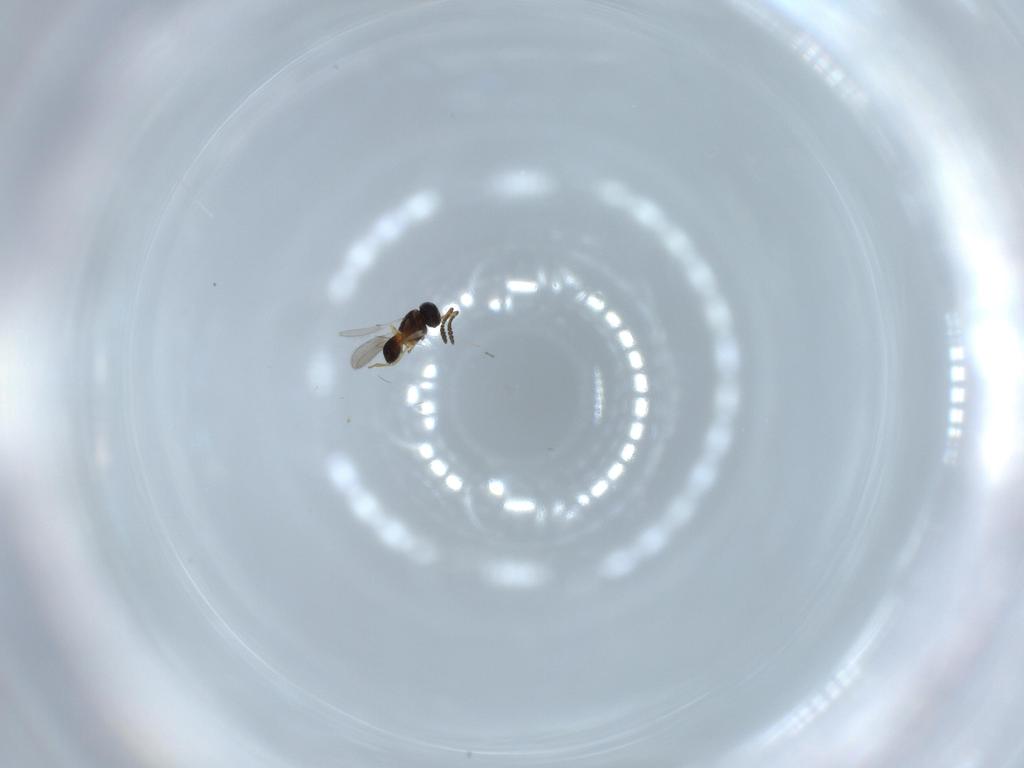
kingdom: Animalia
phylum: Arthropoda
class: Insecta
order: Hymenoptera
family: Scelionidae
